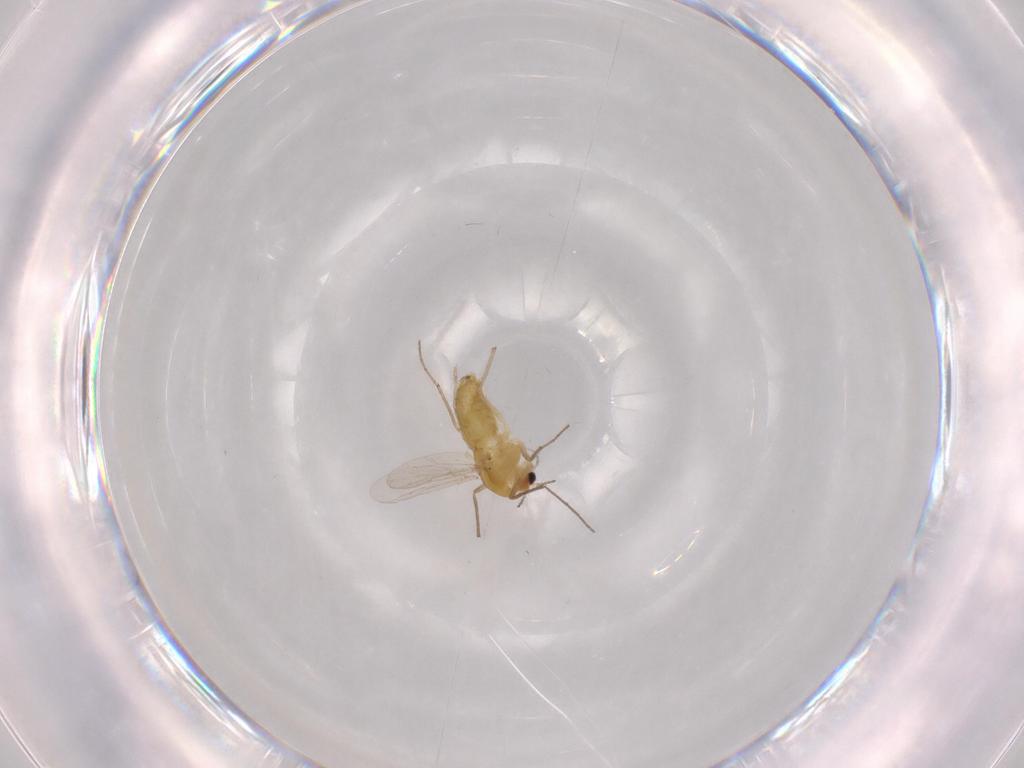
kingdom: Animalia
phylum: Arthropoda
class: Insecta
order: Diptera
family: Chironomidae
